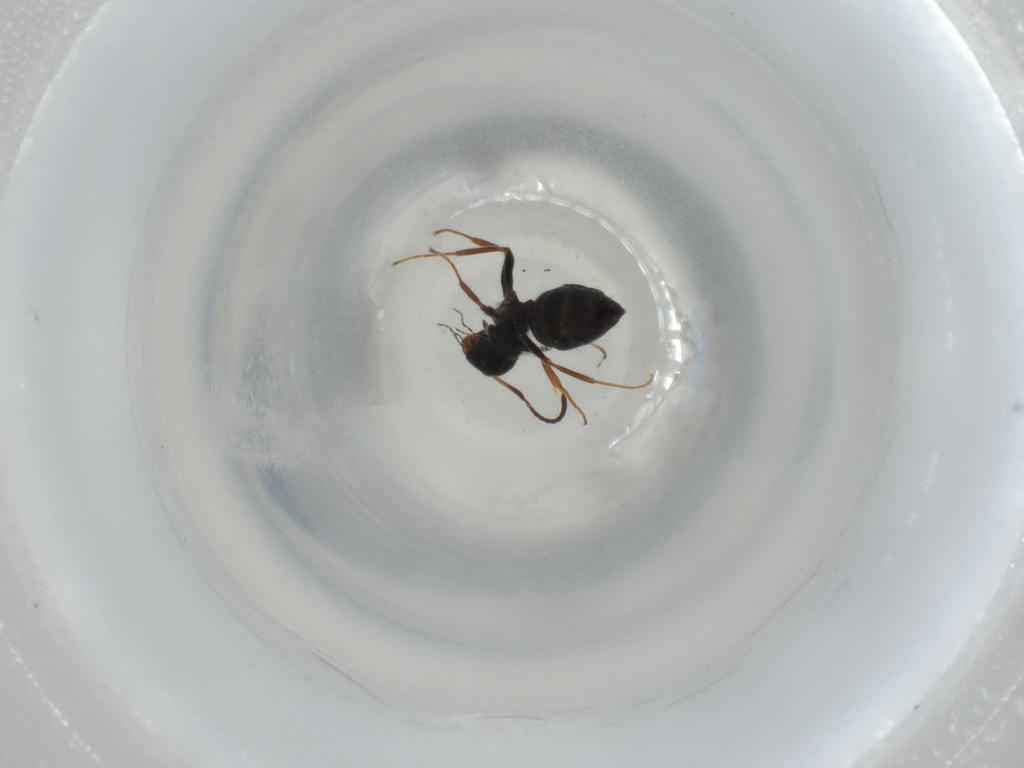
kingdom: Animalia
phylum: Arthropoda
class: Insecta
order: Hymenoptera
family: Formicidae
